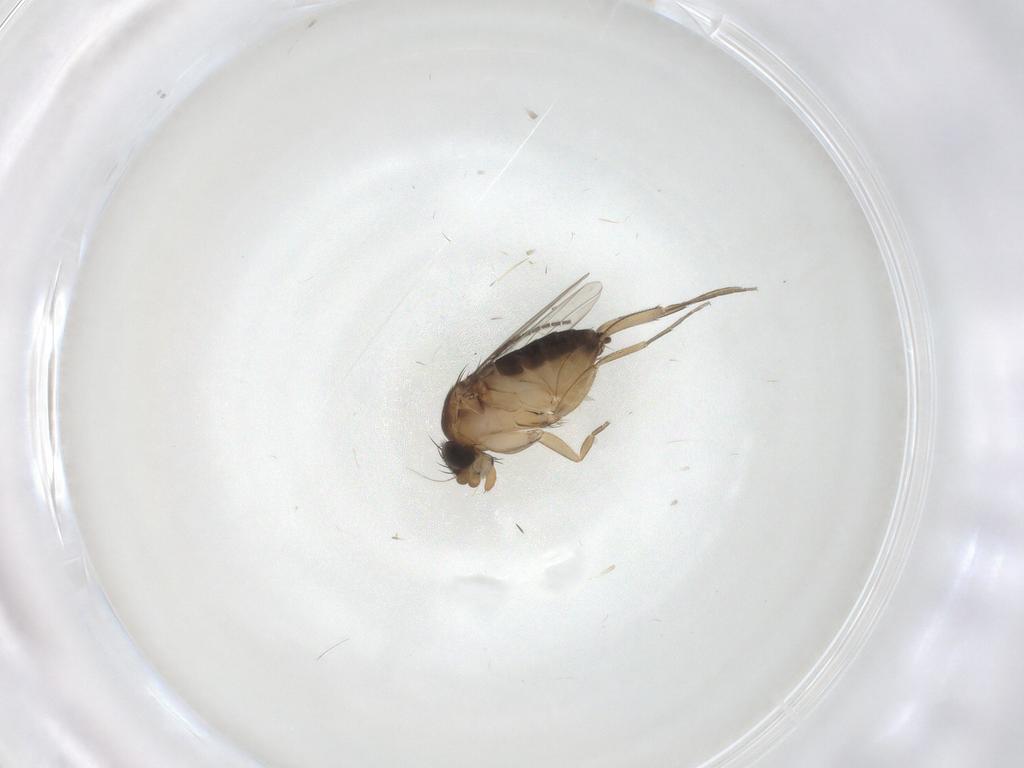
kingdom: Animalia
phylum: Arthropoda
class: Insecta
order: Diptera
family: Phoridae
